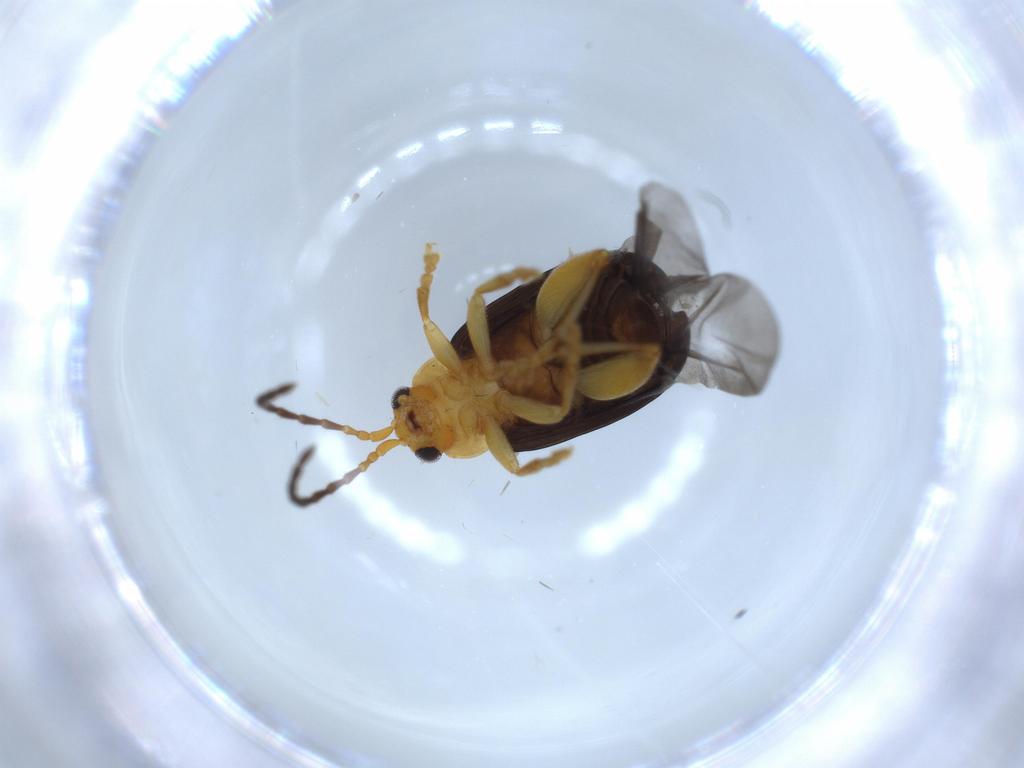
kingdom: Animalia
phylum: Arthropoda
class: Insecta
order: Coleoptera
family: Chrysomelidae
